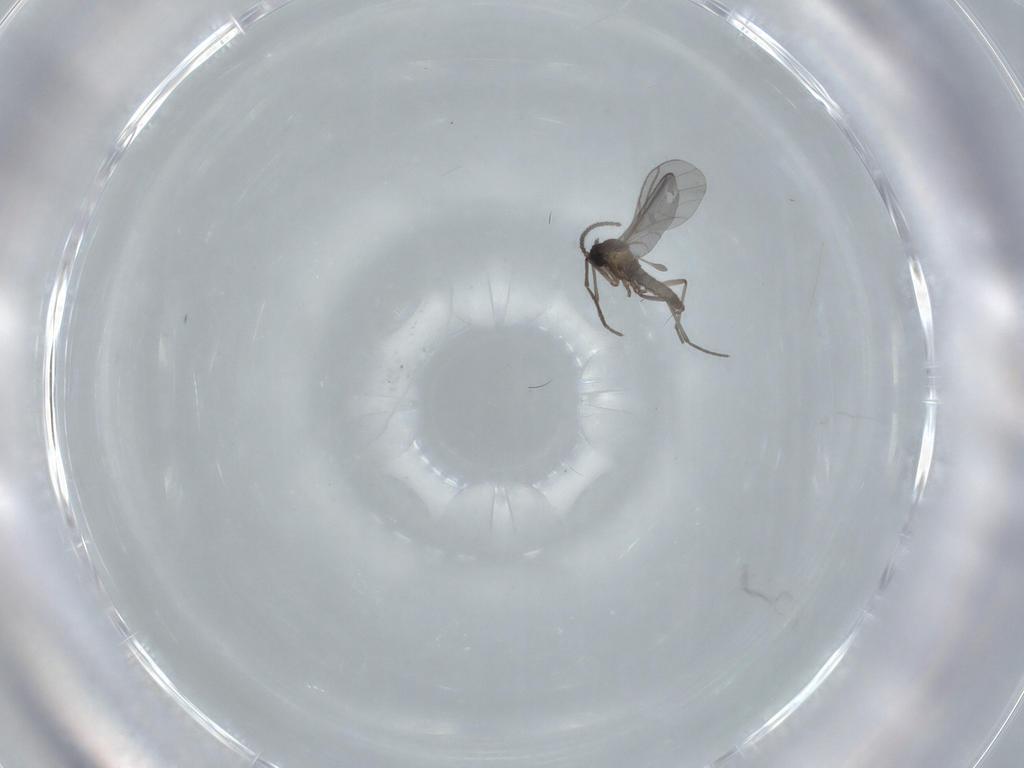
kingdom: Animalia
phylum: Arthropoda
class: Insecta
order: Diptera
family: Sciaridae
